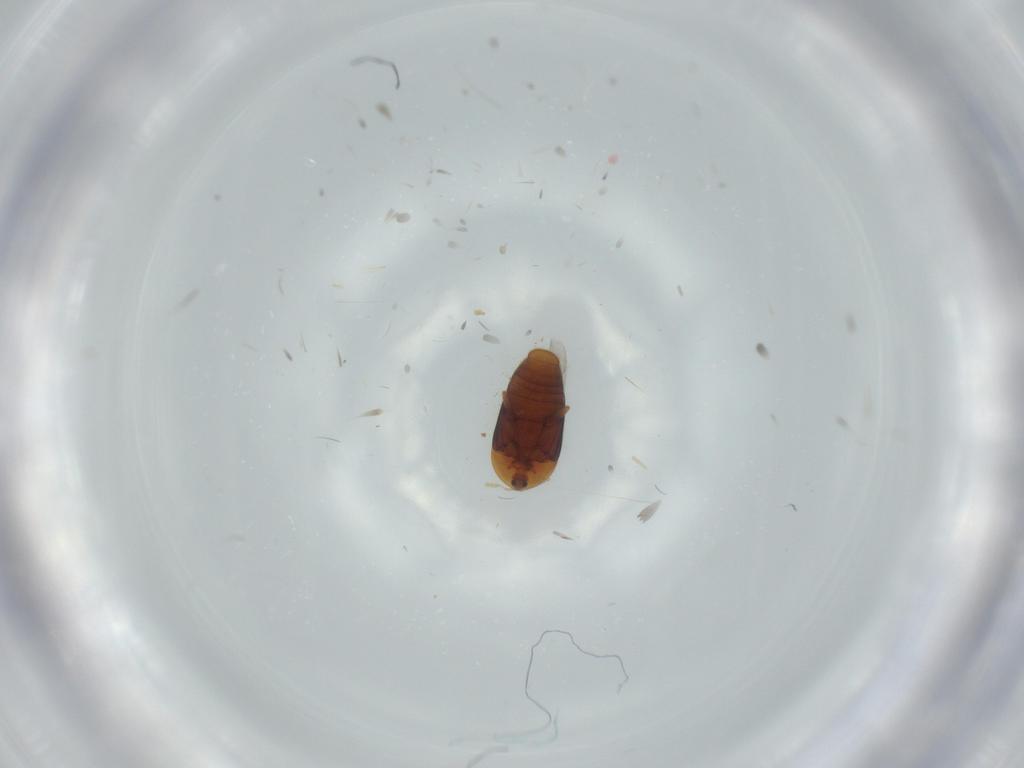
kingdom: Animalia
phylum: Arthropoda
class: Insecta
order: Coleoptera
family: Chrysomelidae
